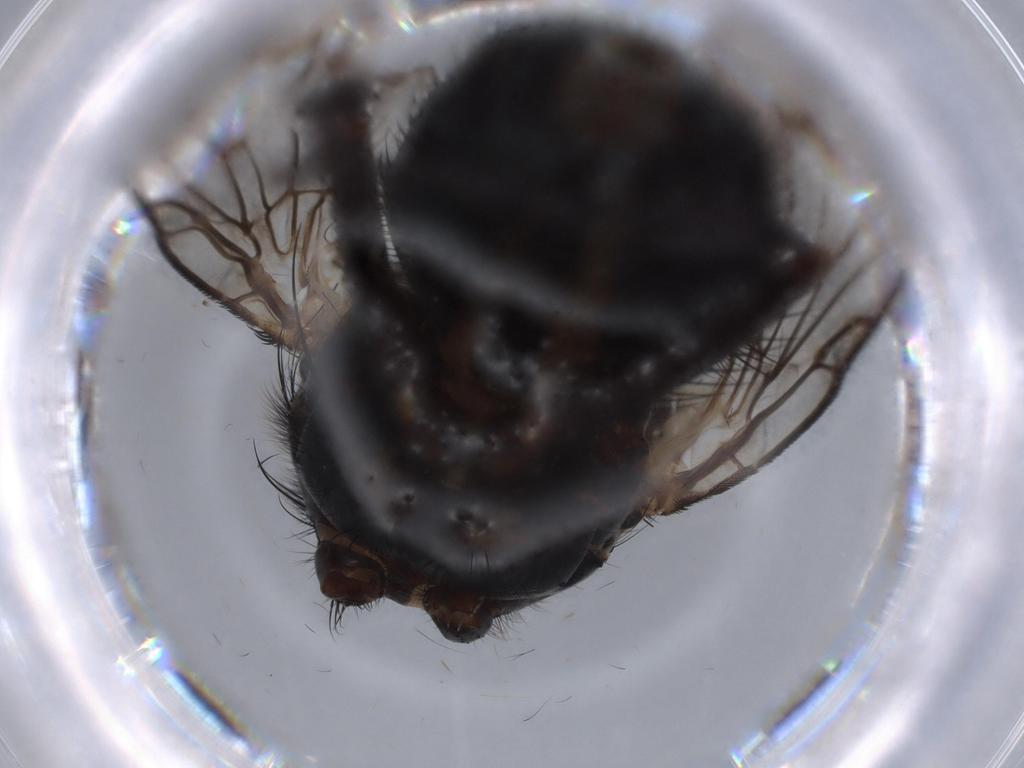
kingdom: Animalia
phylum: Arthropoda
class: Insecta
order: Diptera
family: Muscidae
